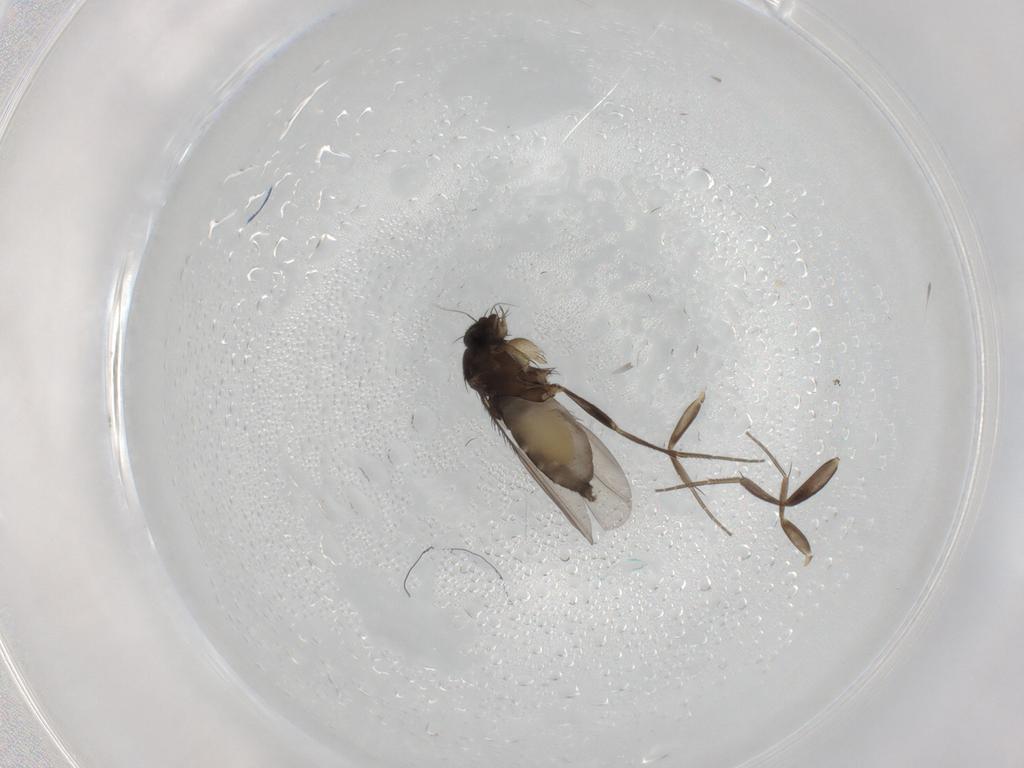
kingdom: Animalia
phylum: Arthropoda
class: Insecta
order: Diptera
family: Phoridae
